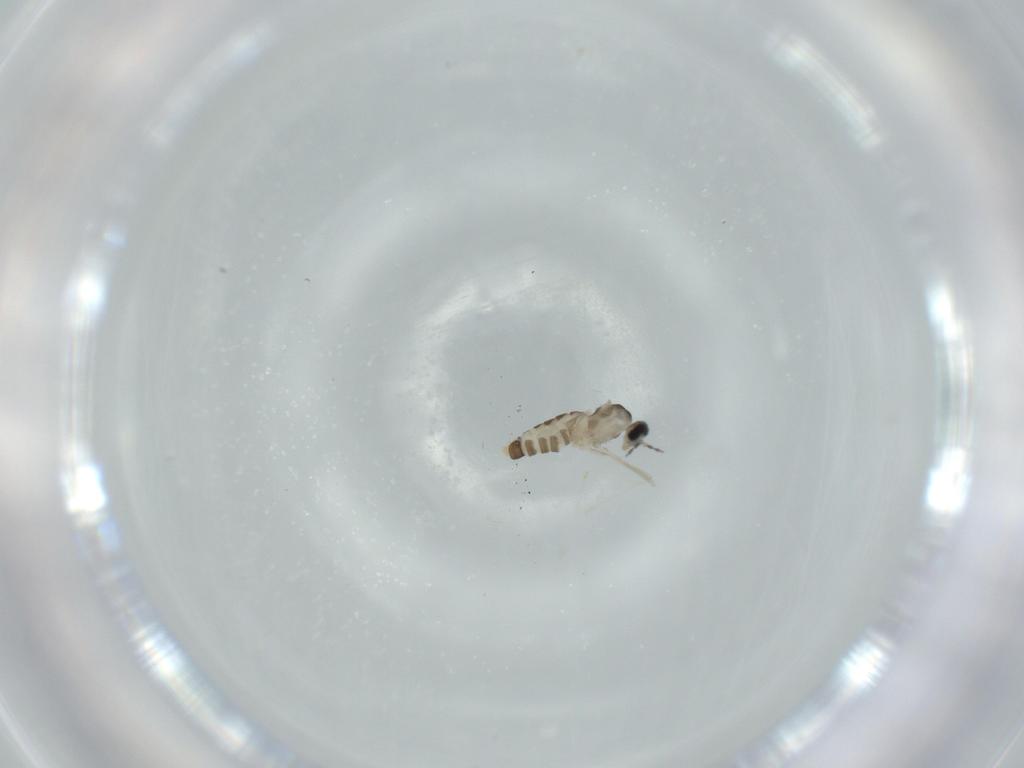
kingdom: Animalia
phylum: Arthropoda
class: Insecta
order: Diptera
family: Cecidomyiidae
